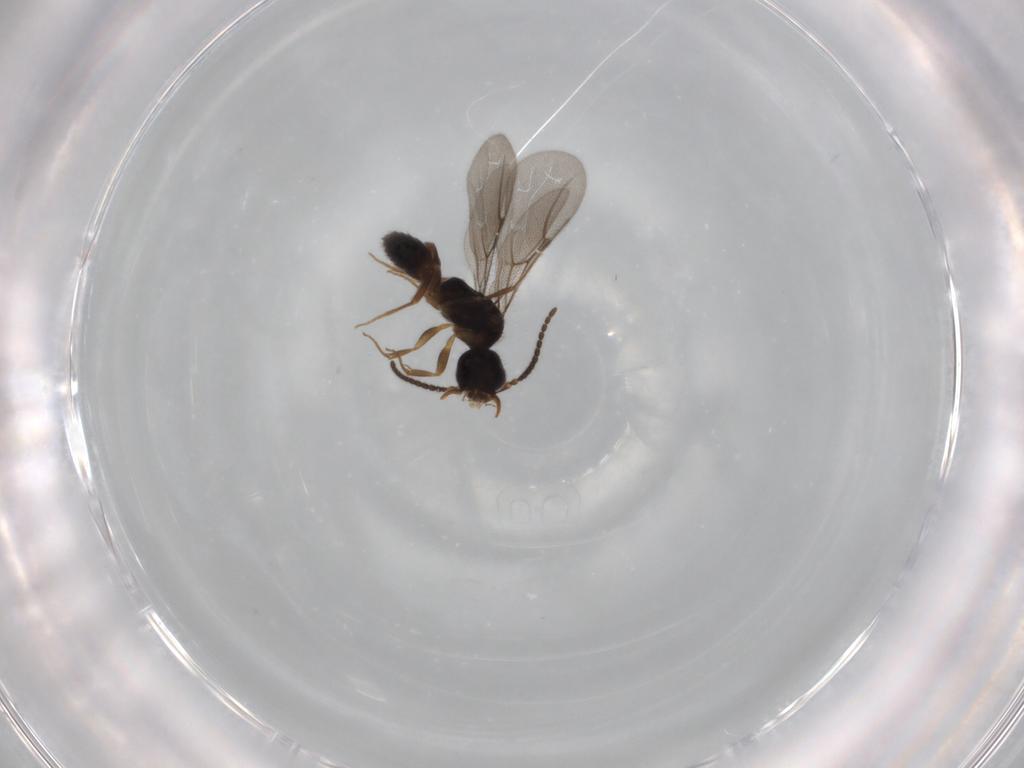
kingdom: Animalia
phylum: Arthropoda
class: Insecta
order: Hymenoptera
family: Bethylidae
